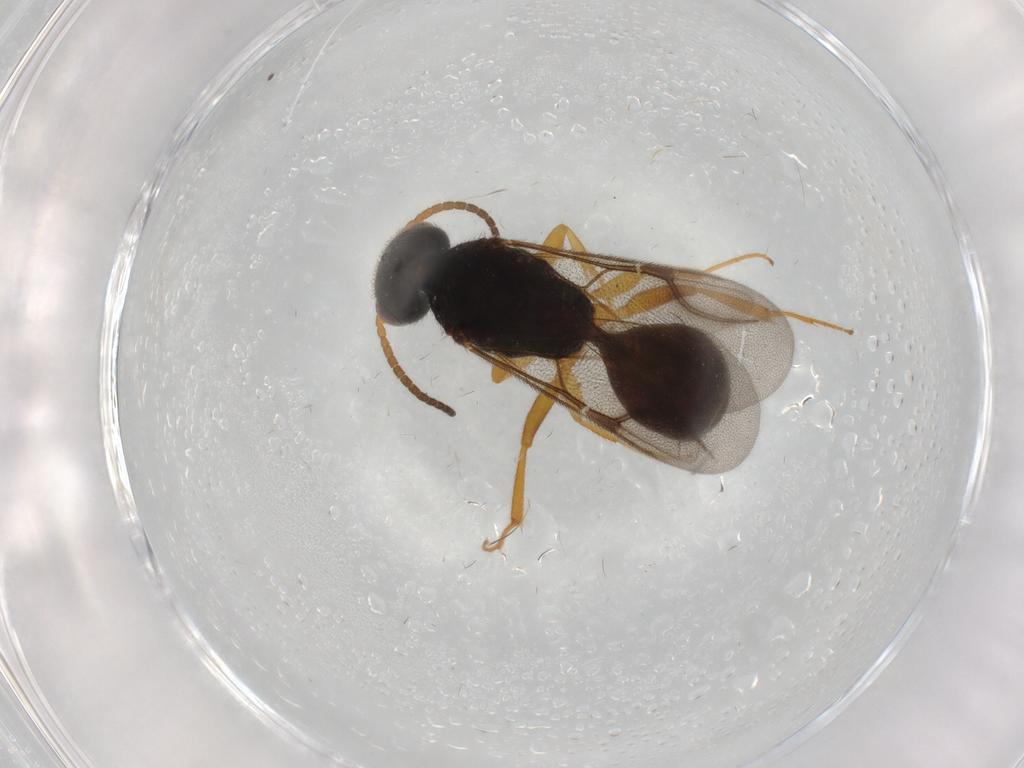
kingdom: Animalia
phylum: Arthropoda
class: Insecta
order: Hymenoptera
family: Bethylidae
